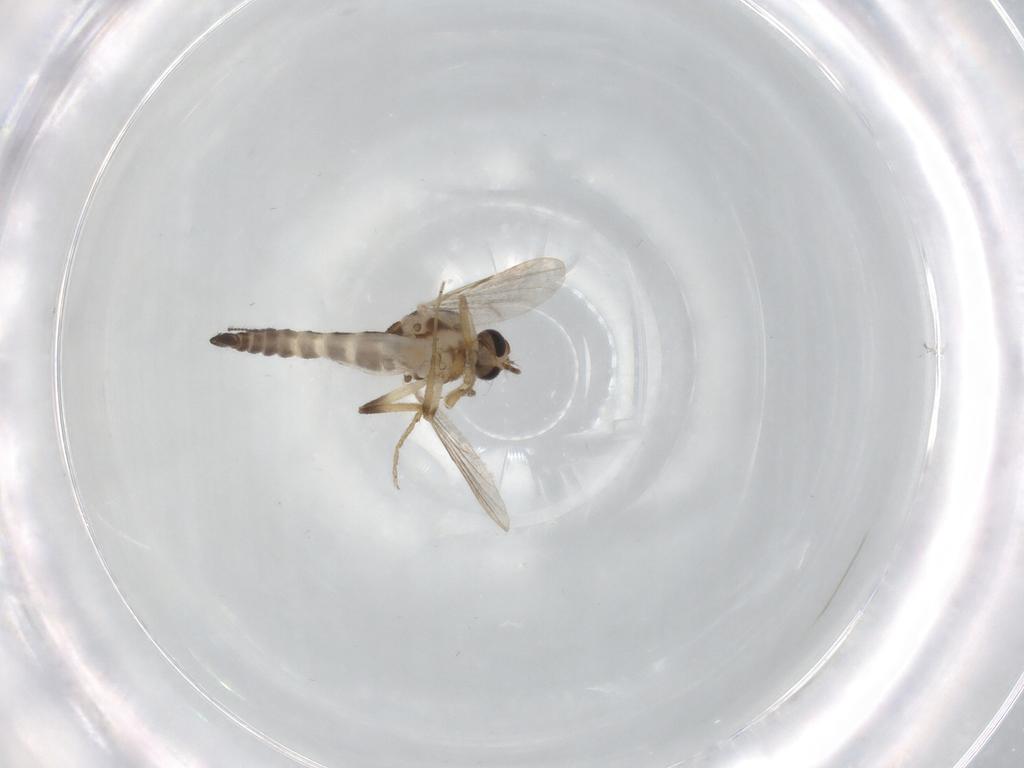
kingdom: Animalia
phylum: Arthropoda
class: Insecta
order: Diptera
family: Ceratopogonidae
